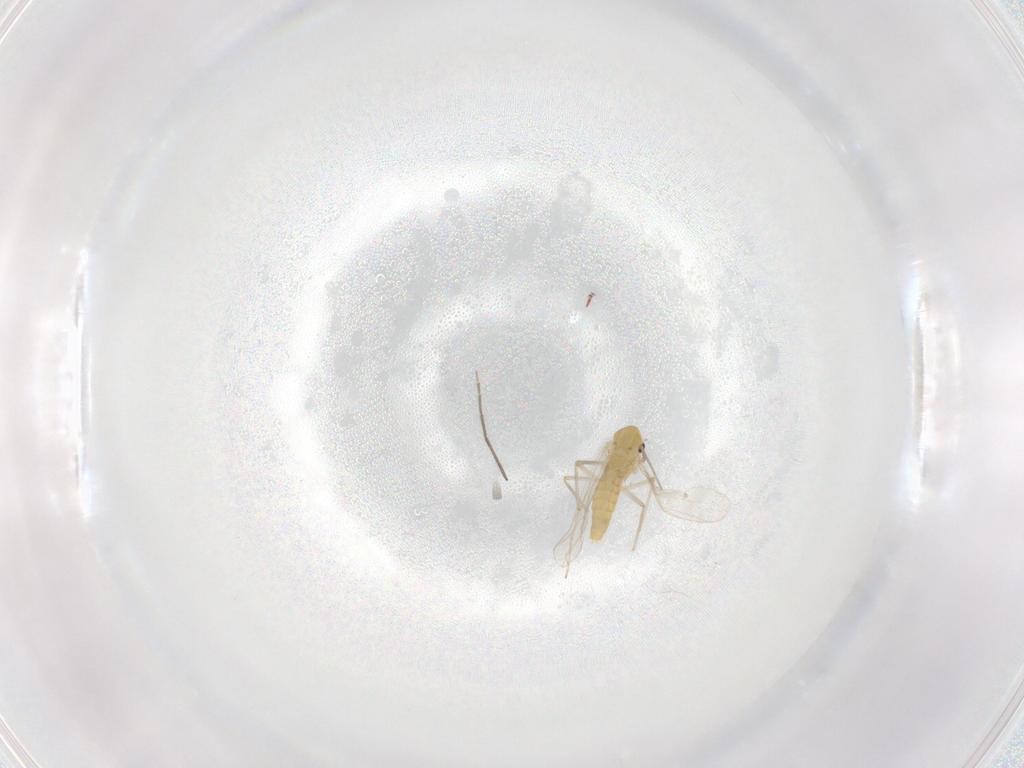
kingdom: Animalia
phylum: Arthropoda
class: Insecta
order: Diptera
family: Chironomidae
